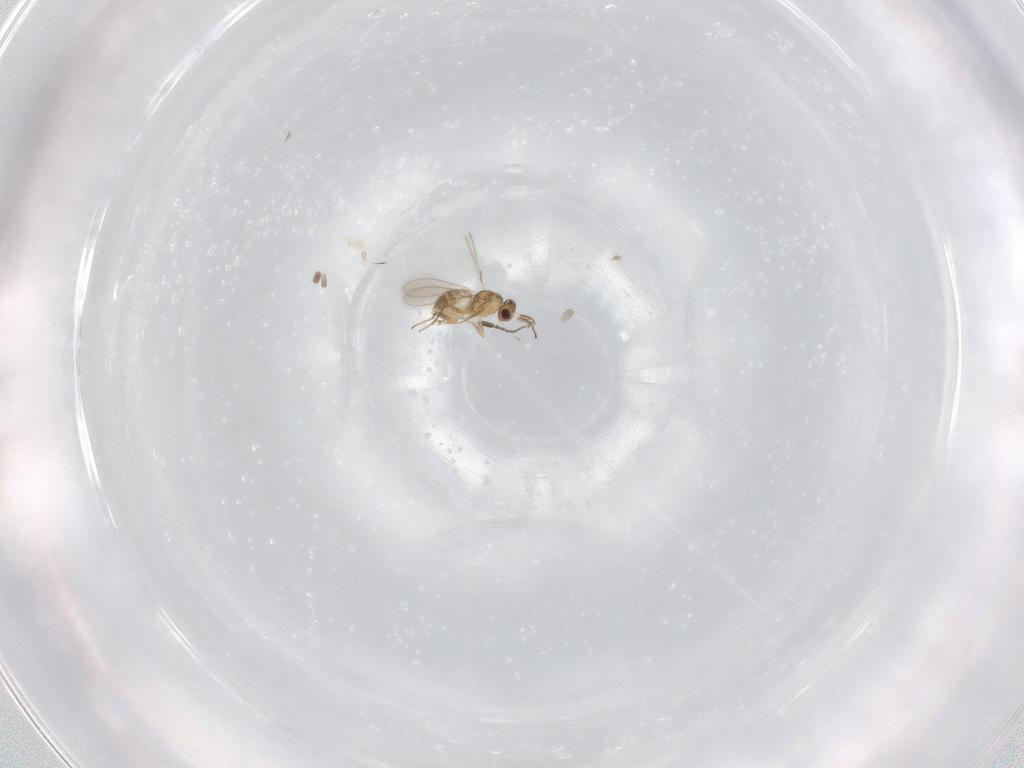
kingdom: Animalia
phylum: Arthropoda
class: Insecta
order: Hymenoptera
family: Mymaridae
